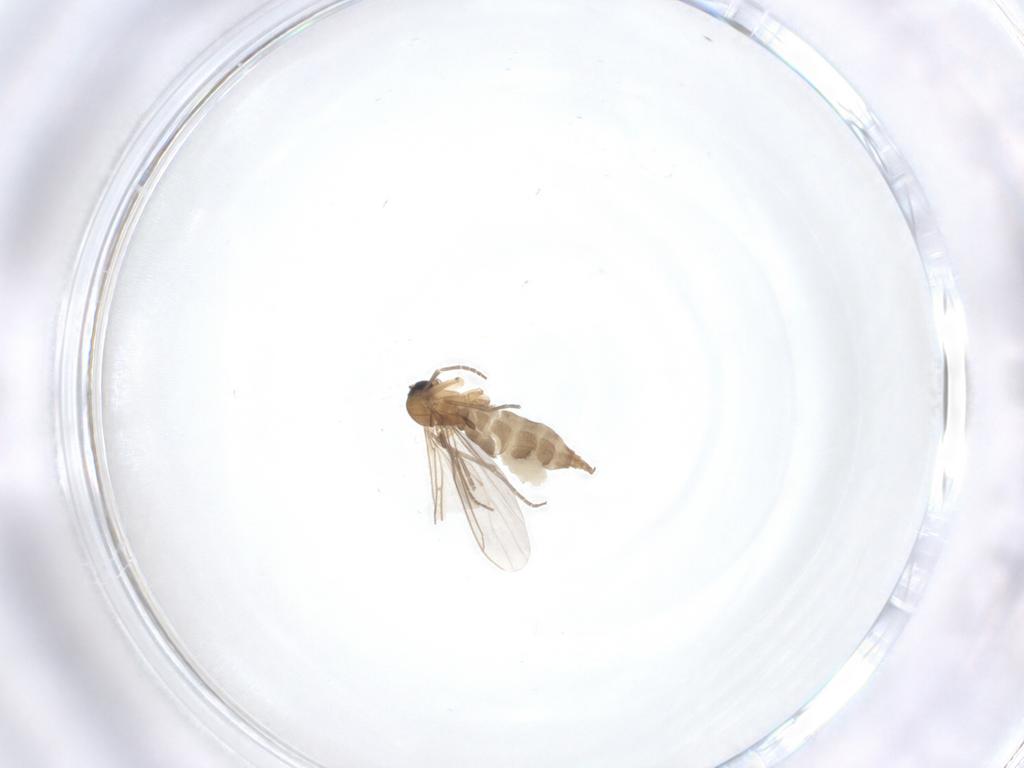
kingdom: Animalia
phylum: Arthropoda
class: Insecta
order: Diptera
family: Sciaridae
